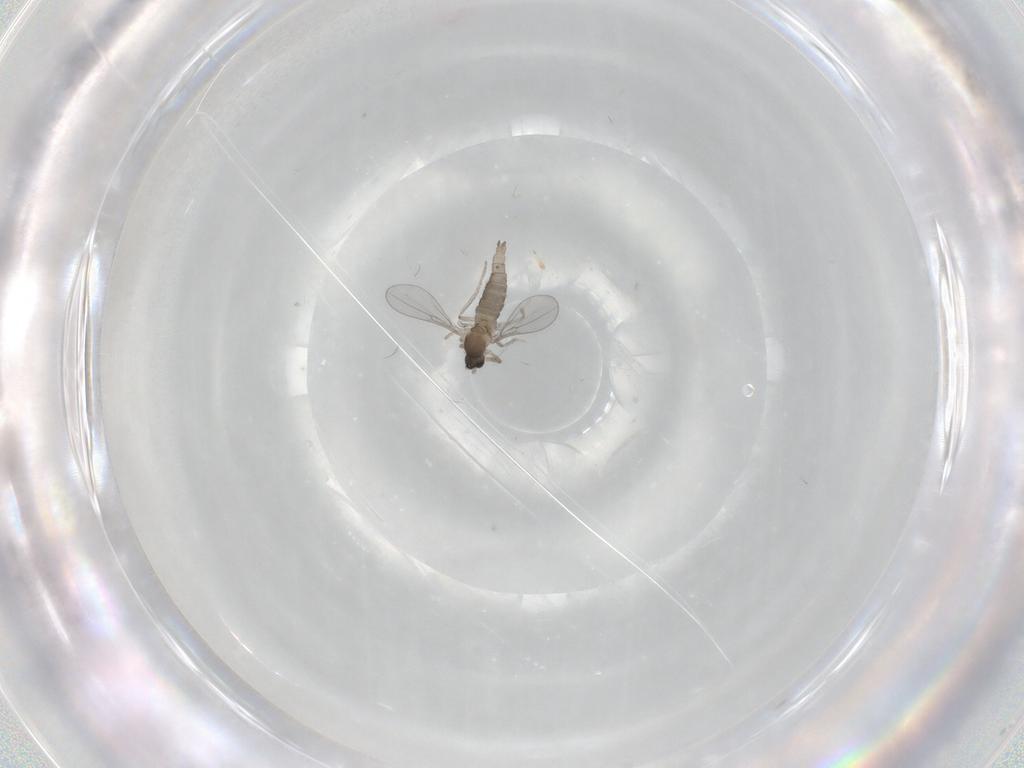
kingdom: Animalia
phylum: Arthropoda
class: Insecta
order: Diptera
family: Cecidomyiidae
